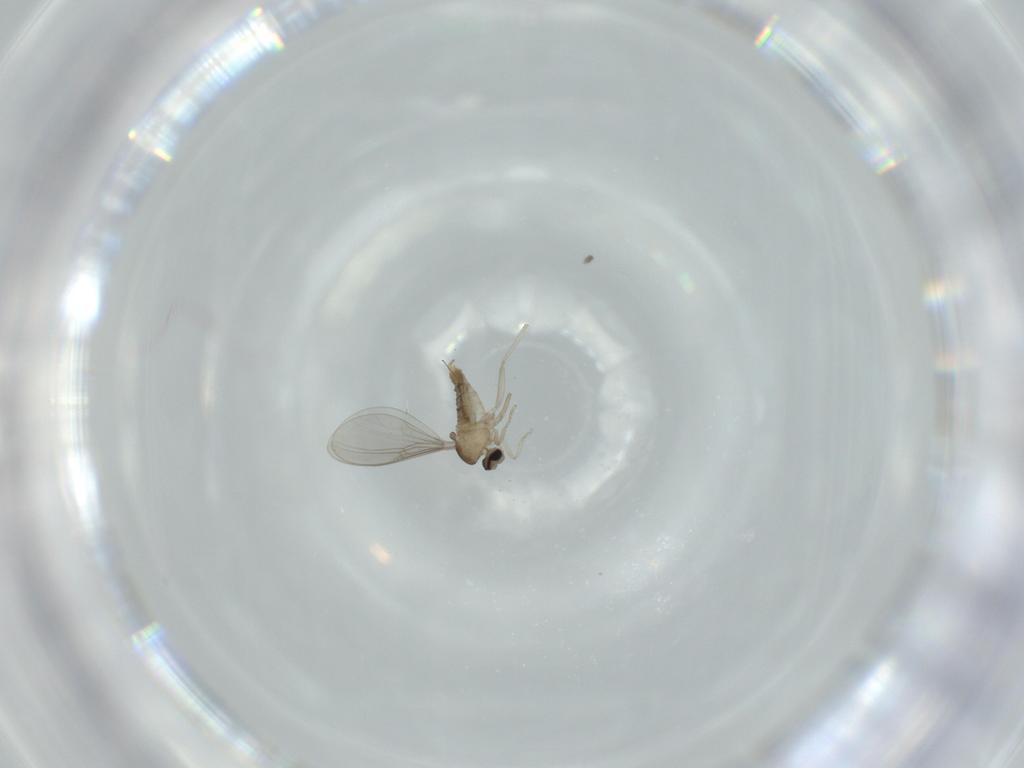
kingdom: Animalia
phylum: Arthropoda
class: Insecta
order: Diptera
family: Cecidomyiidae
